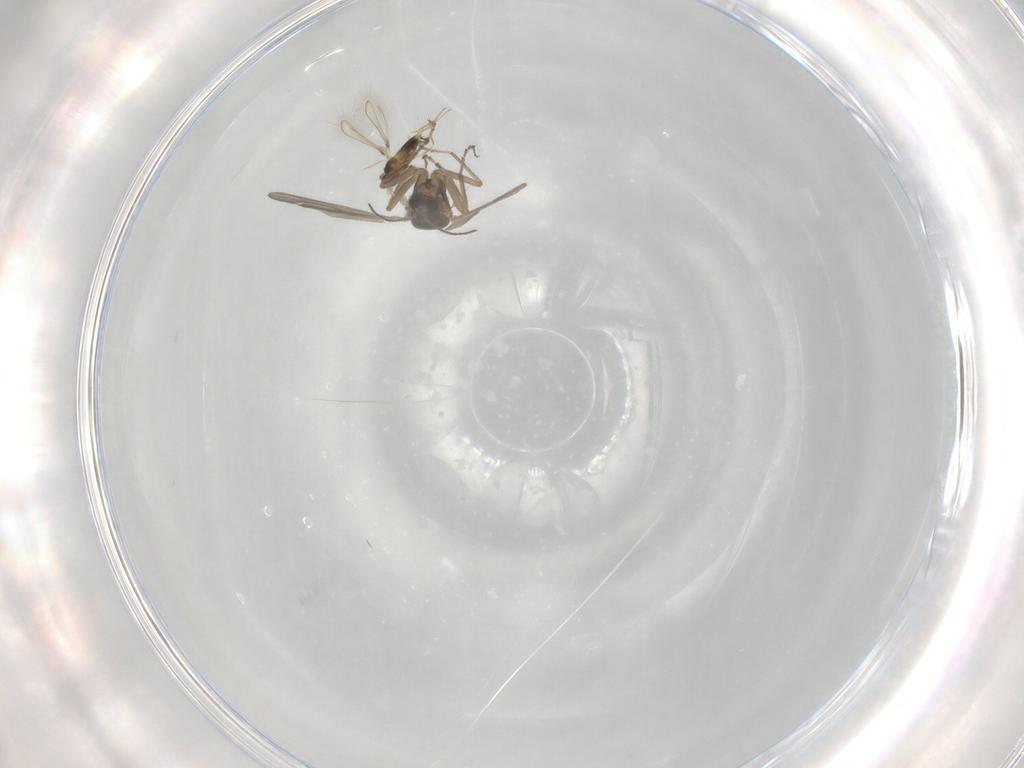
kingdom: Animalia
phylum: Arthropoda
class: Insecta
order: Diptera
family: Ceratopogonidae
